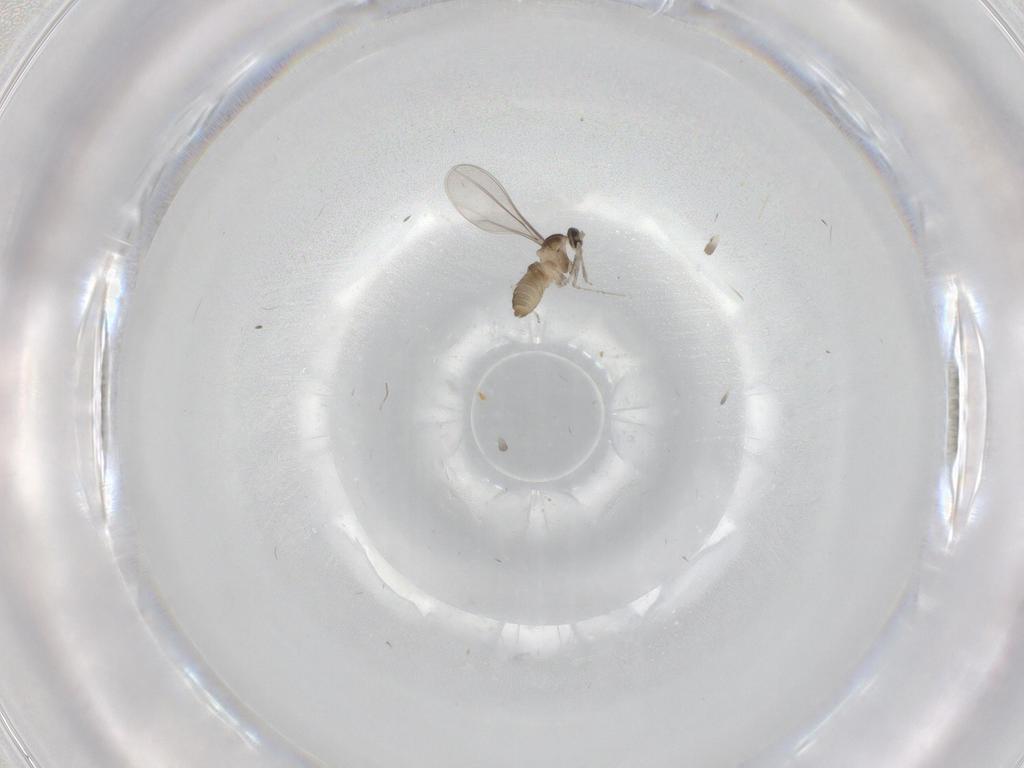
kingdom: Animalia
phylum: Arthropoda
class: Insecta
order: Diptera
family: Cecidomyiidae
